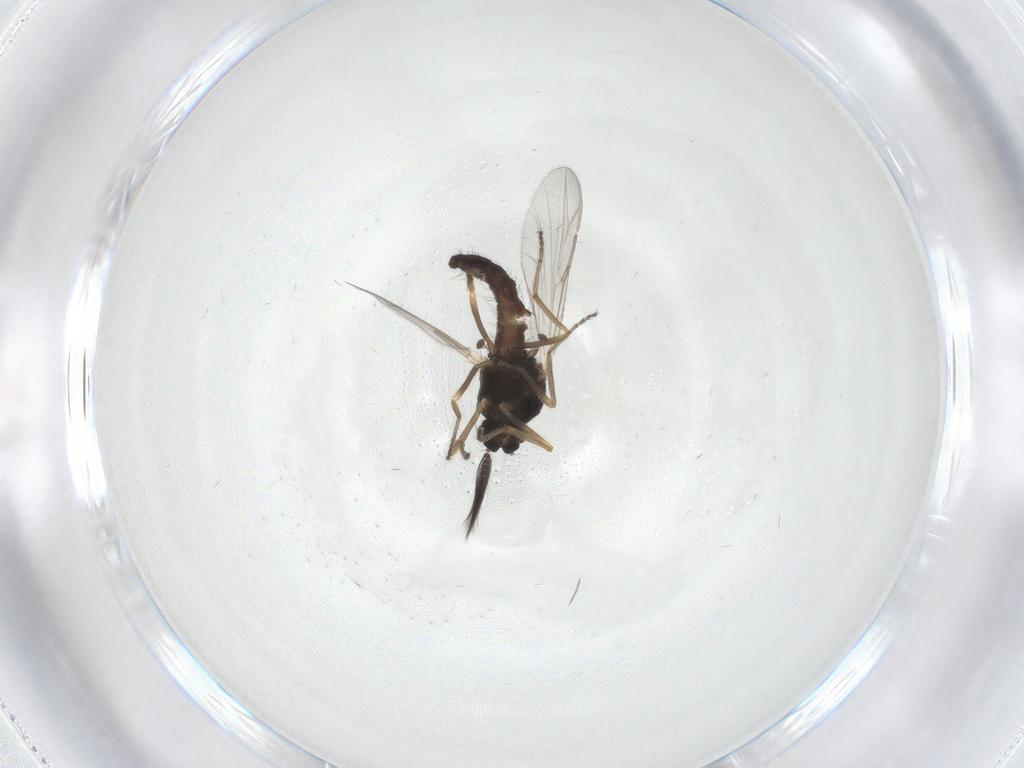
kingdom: Animalia
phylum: Arthropoda
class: Insecta
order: Diptera
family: Ceratopogonidae
